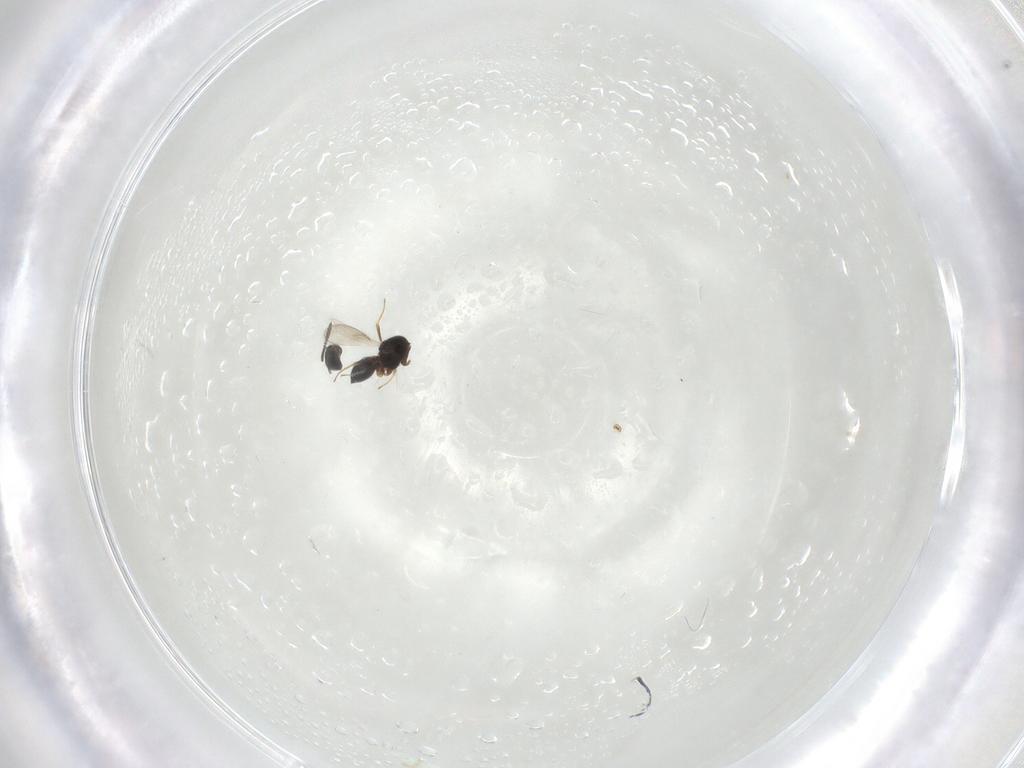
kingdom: Animalia
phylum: Arthropoda
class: Insecta
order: Hymenoptera
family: Scelionidae
